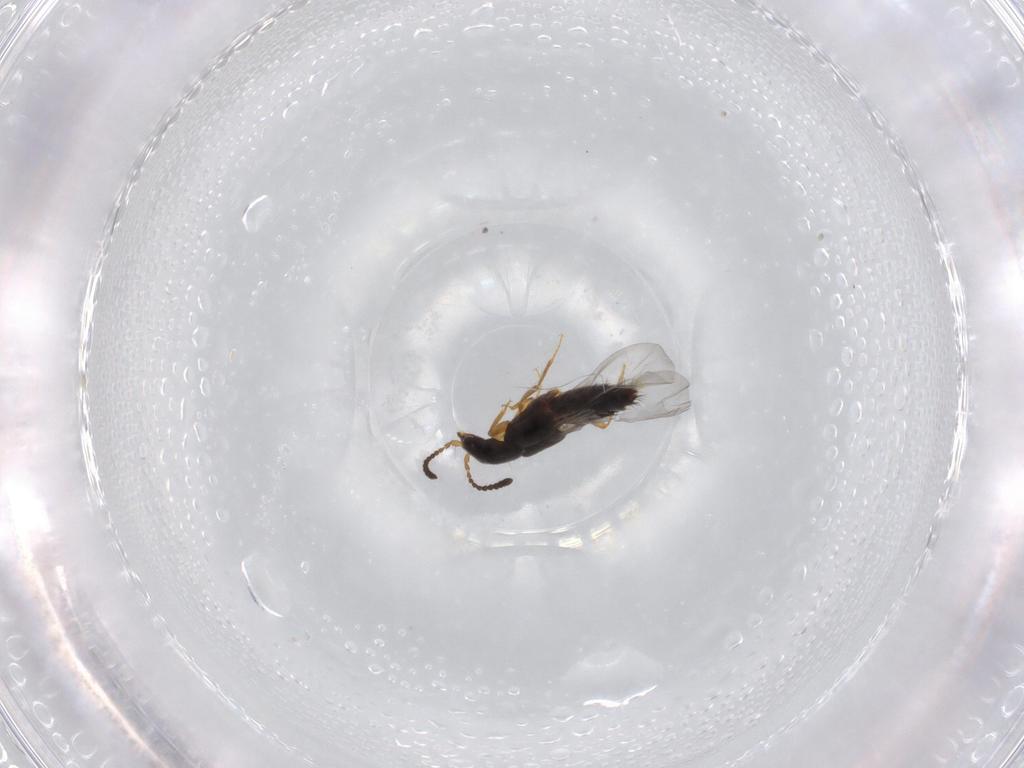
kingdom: Animalia
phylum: Arthropoda
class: Insecta
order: Coleoptera
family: Staphylinidae
